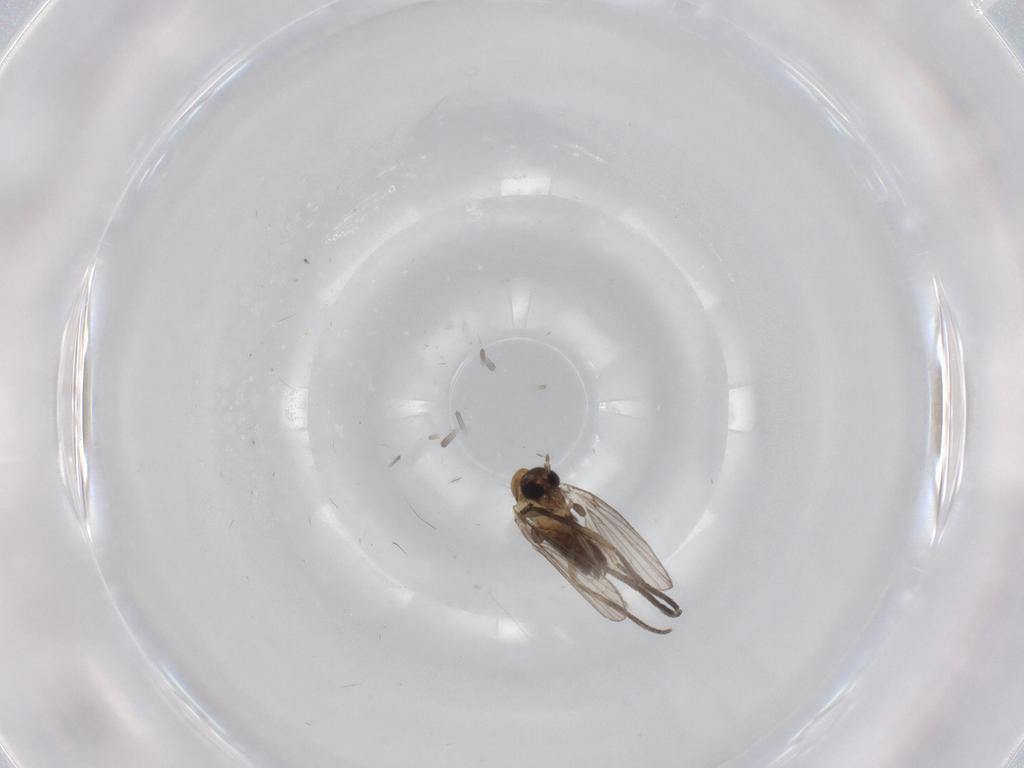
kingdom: Animalia
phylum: Arthropoda
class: Insecta
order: Diptera
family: Psychodidae
